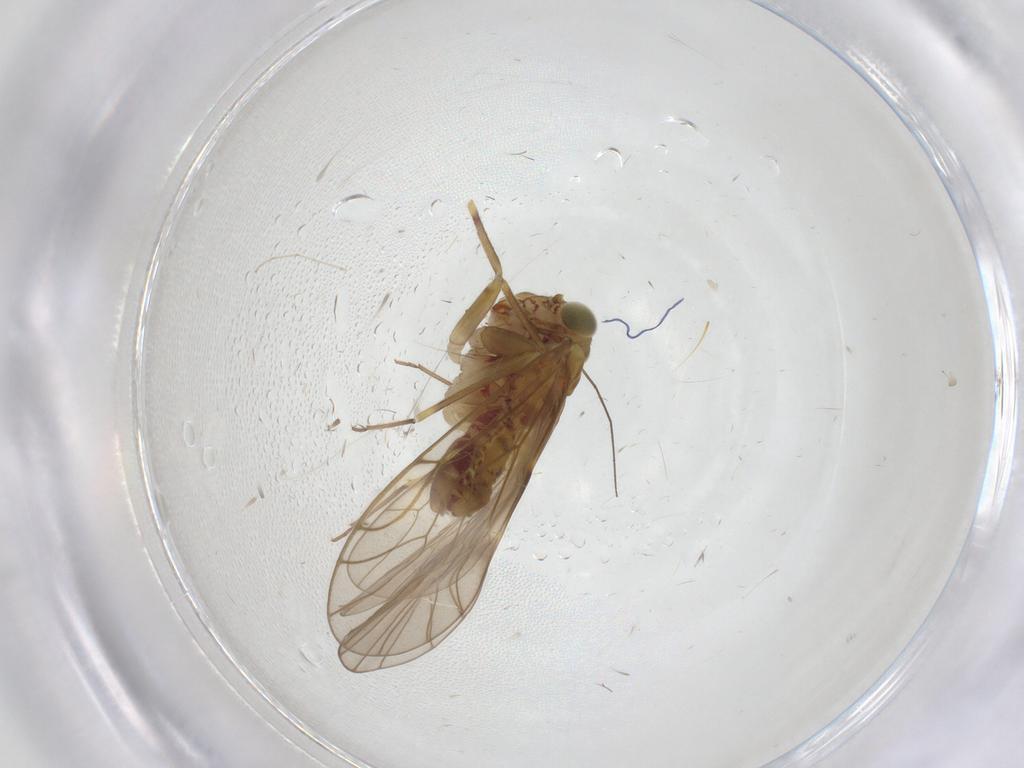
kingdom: Animalia
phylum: Arthropoda
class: Insecta
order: Psocodea
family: Philotarsidae
